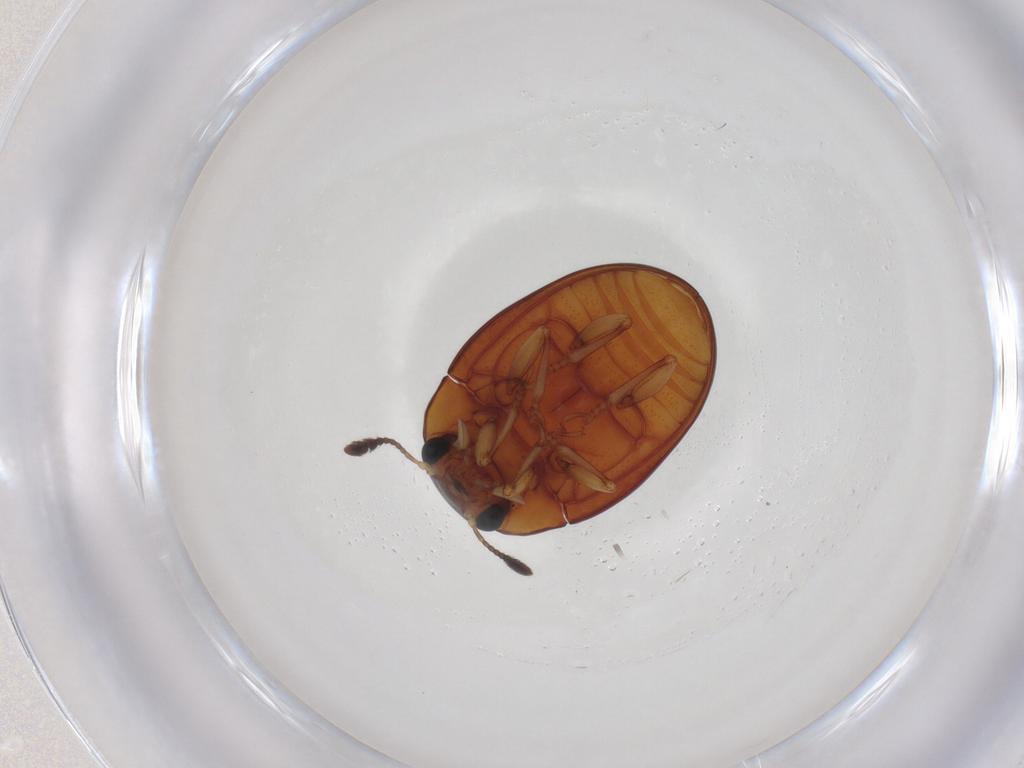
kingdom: Animalia
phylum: Arthropoda
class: Insecta
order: Coleoptera
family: Erotylidae
